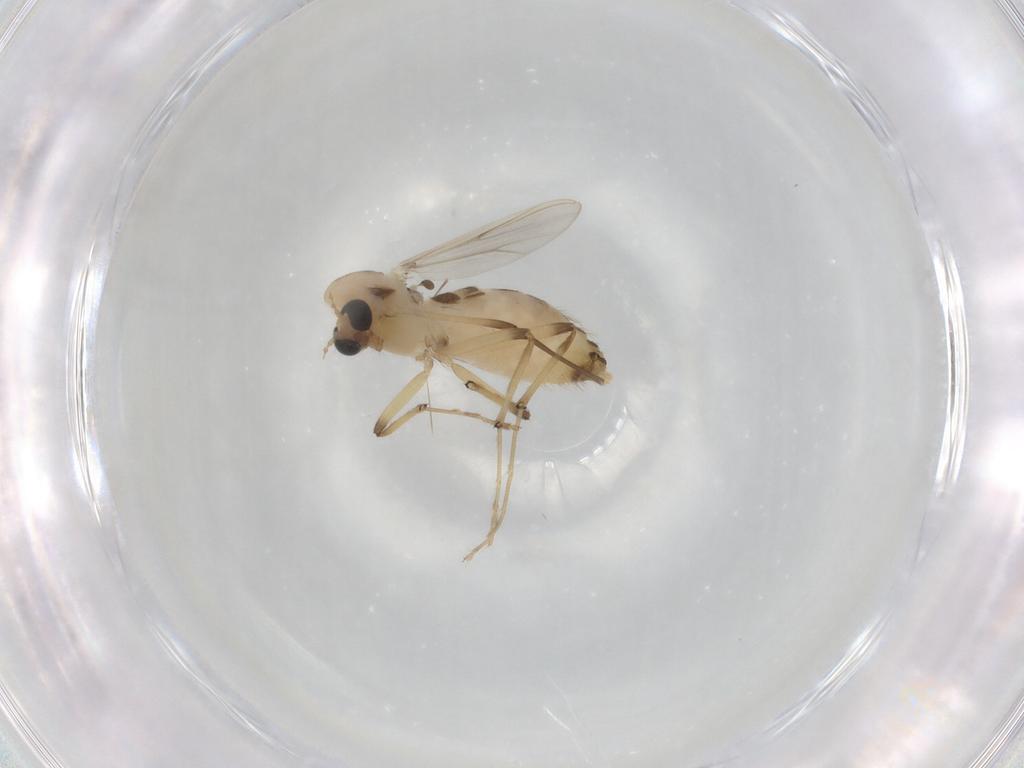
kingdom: Animalia
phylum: Arthropoda
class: Insecta
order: Diptera
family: Chironomidae
